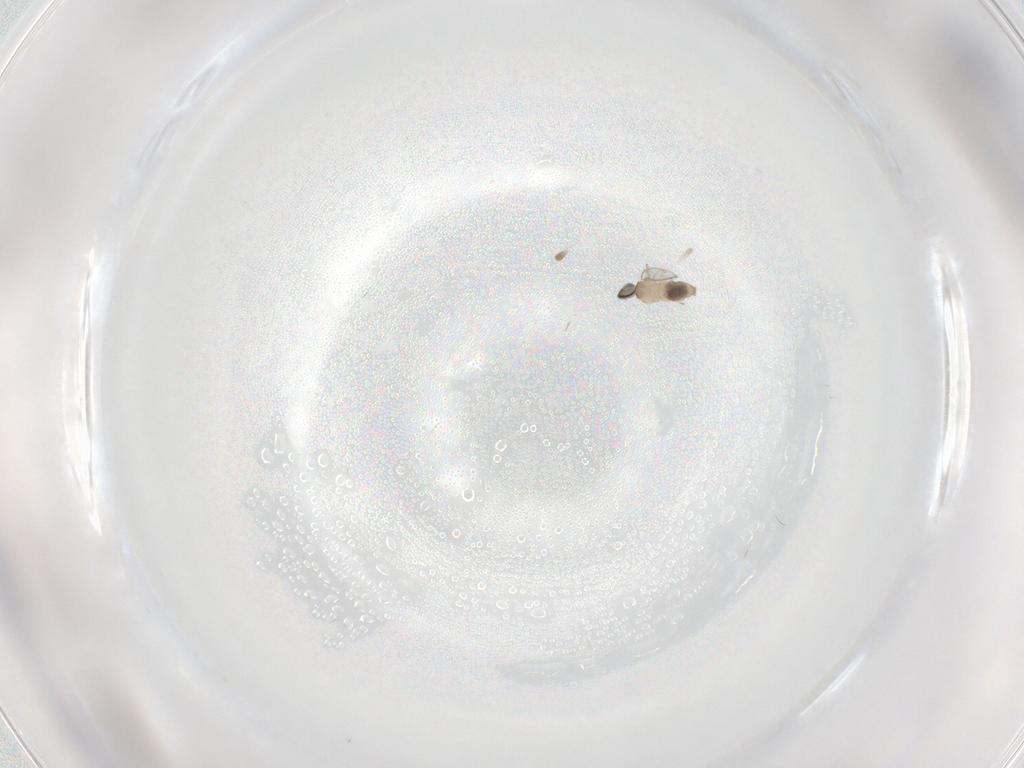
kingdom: Animalia
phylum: Arthropoda
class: Insecta
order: Diptera
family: Cecidomyiidae
